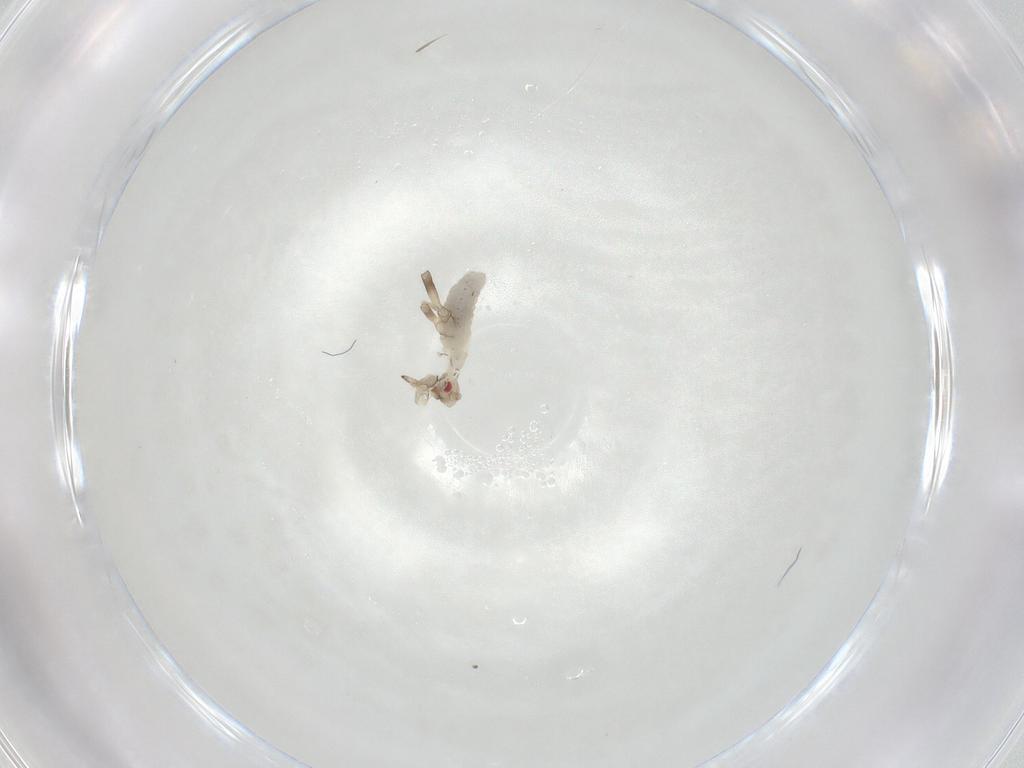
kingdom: Animalia
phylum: Arthropoda
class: Insecta
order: Hemiptera
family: Aphididae
